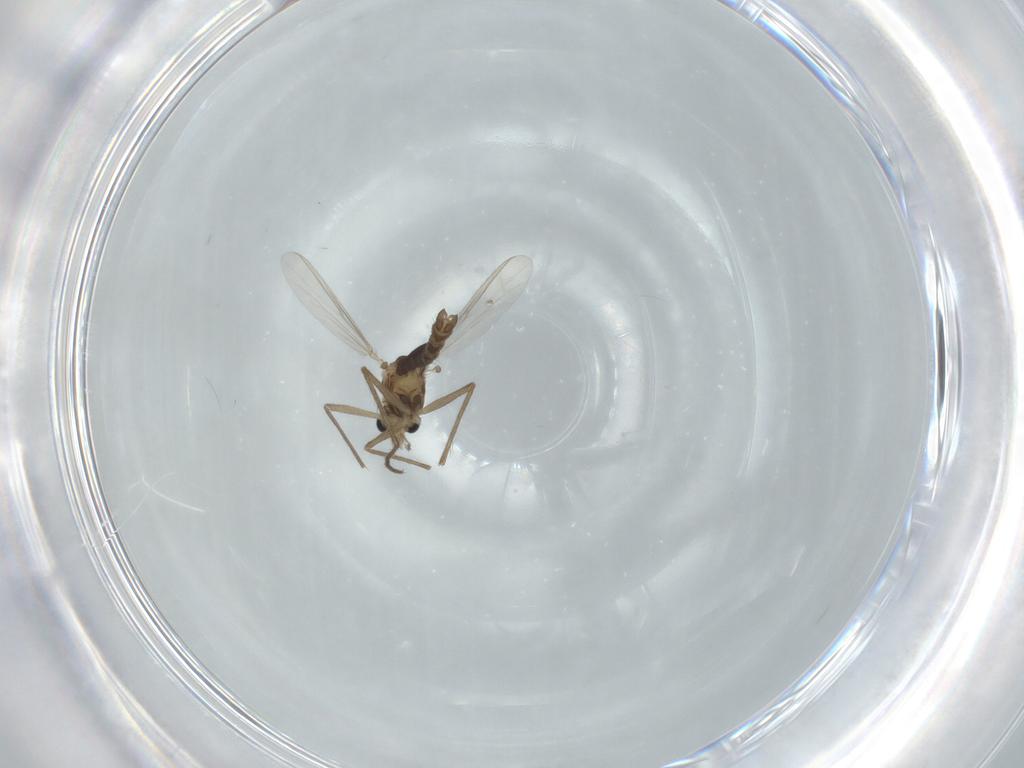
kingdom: Animalia
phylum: Arthropoda
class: Insecta
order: Diptera
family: Chironomidae
